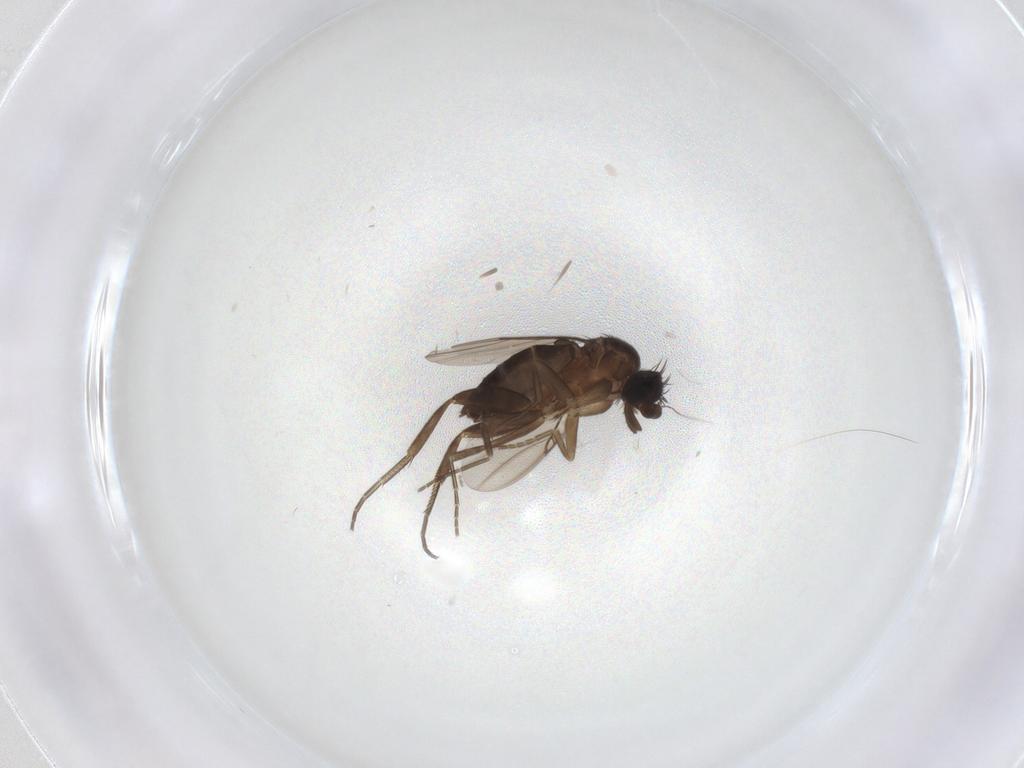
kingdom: Animalia
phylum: Arthropoda
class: Insecta
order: Diptera
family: Phoridae
